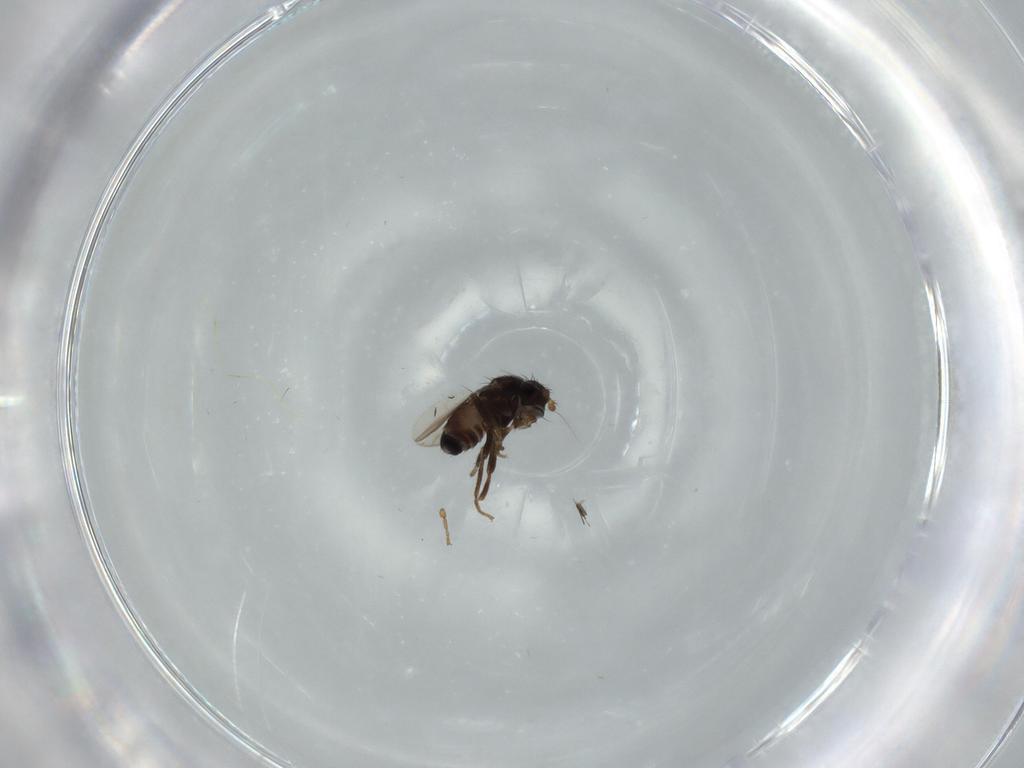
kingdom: Animalia
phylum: Arthropoda
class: Insecta
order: Diptera
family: Sphaeroceridae
